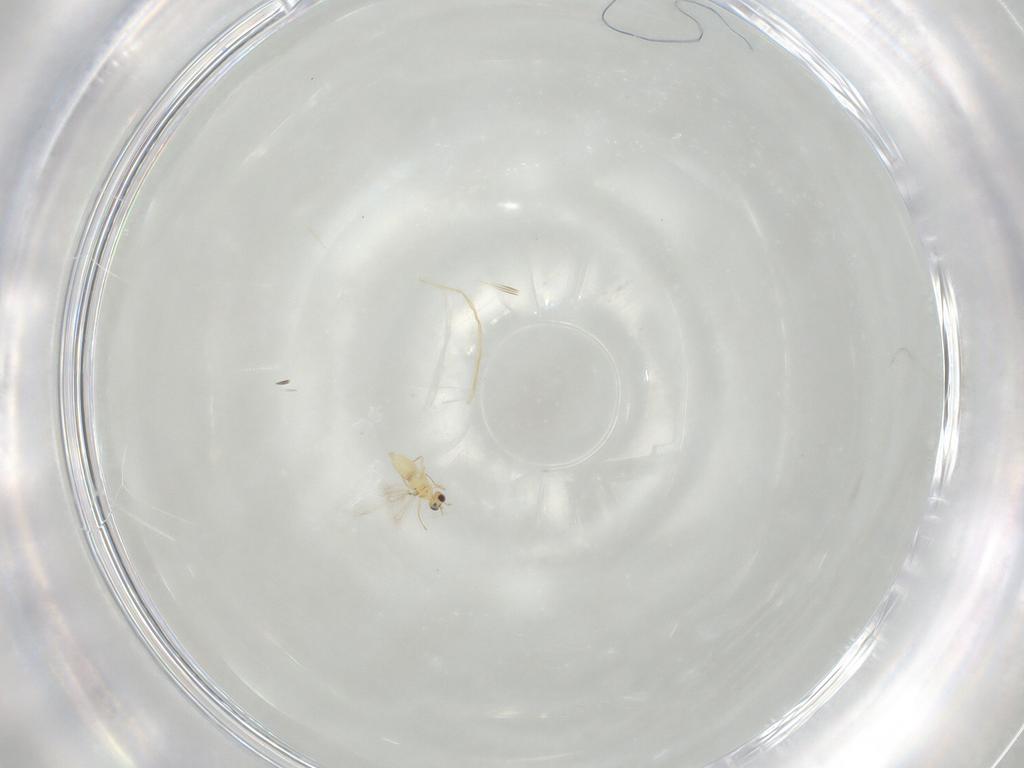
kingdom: Animalia
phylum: Arthropoda
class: Insecta
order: Hymenoptera
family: Mymaridae
